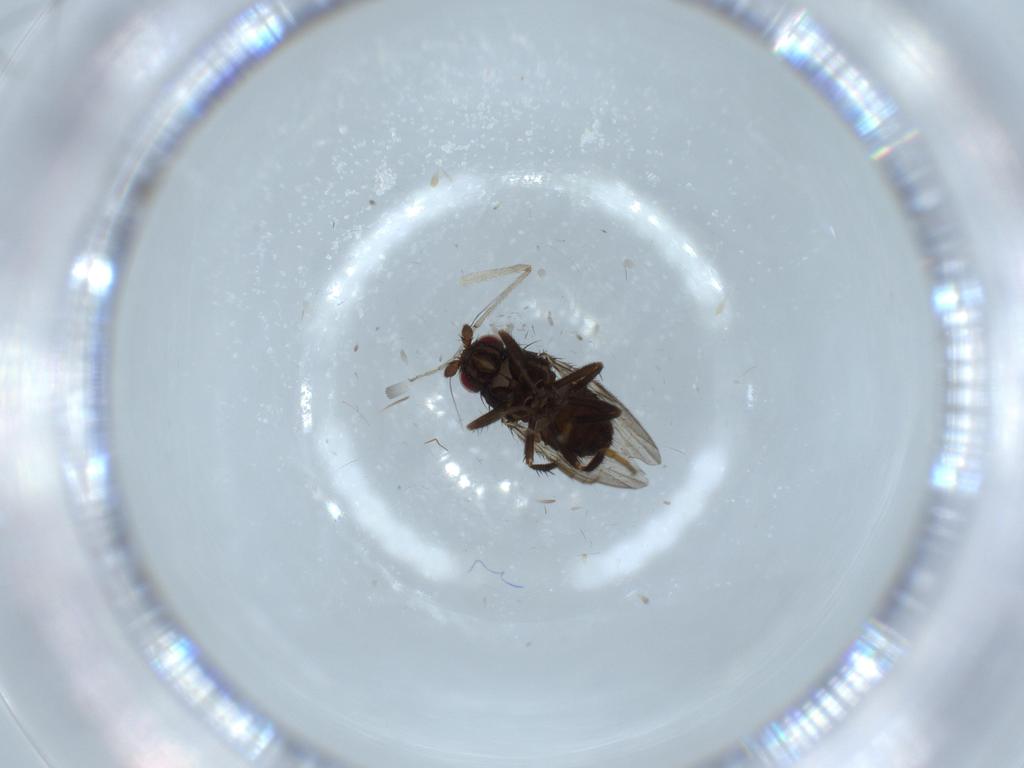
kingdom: Animalia
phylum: Arthropoda
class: Insecta
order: Diptera
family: Sphaeroceridae
